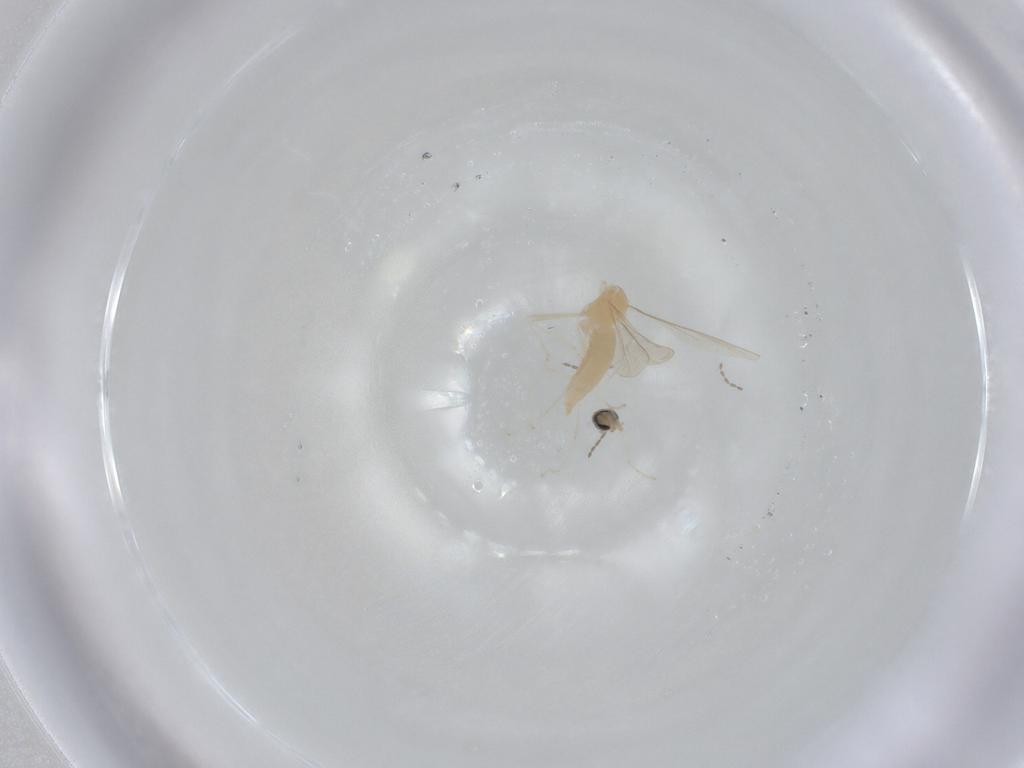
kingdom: Animalia
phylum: Arthropoda
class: Insecta
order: Diptera
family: Cecidomyiidae
